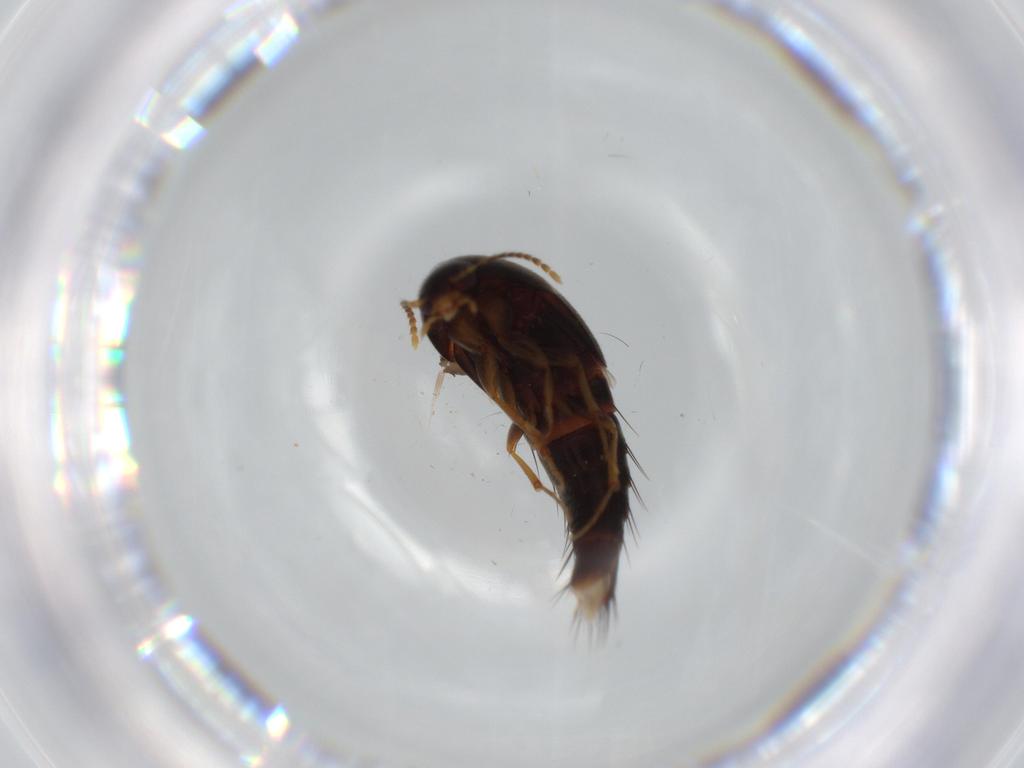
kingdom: Animalia
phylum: Arthropoda
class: Insecta
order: Coleoptera
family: Staphylinidae
